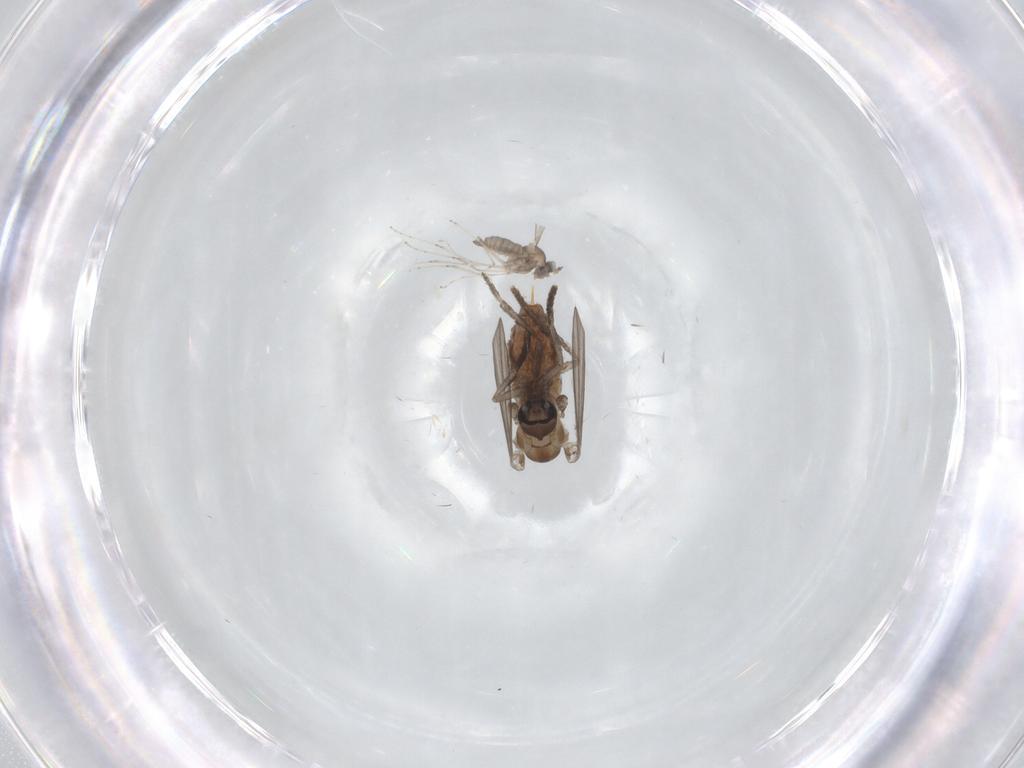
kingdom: Animalia
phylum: Arthropoda
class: Insecta
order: Diptera
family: Psychodidae
